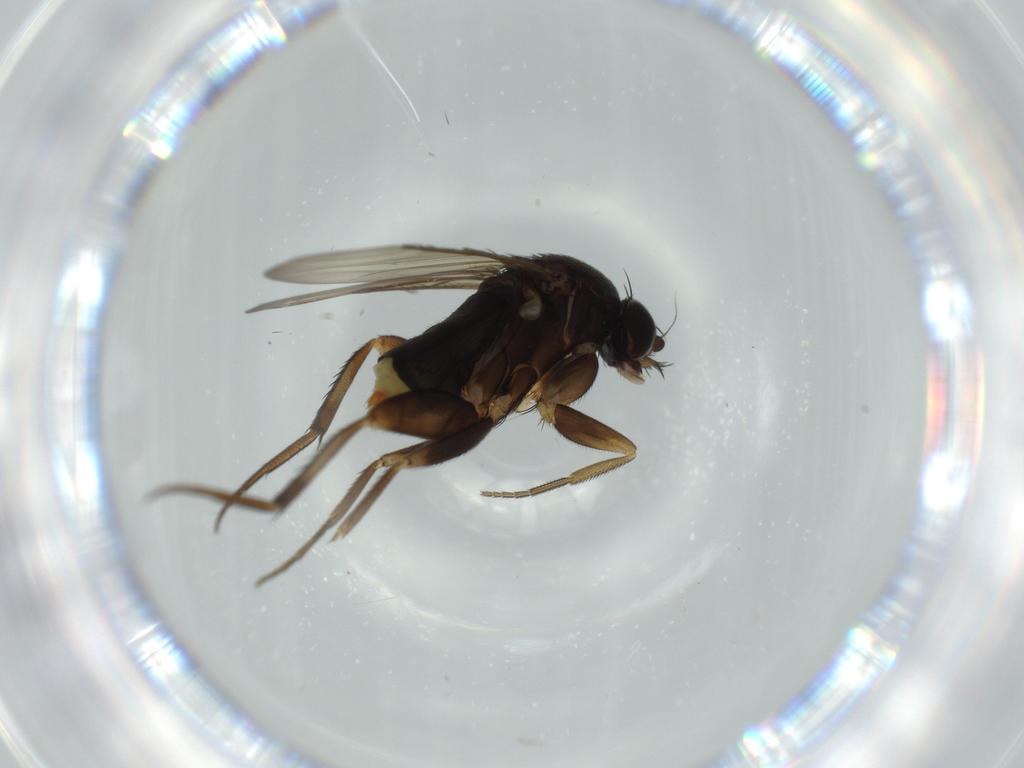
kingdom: Animalia
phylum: Arthropoda
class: Insecta
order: Diptera
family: Phoridae
